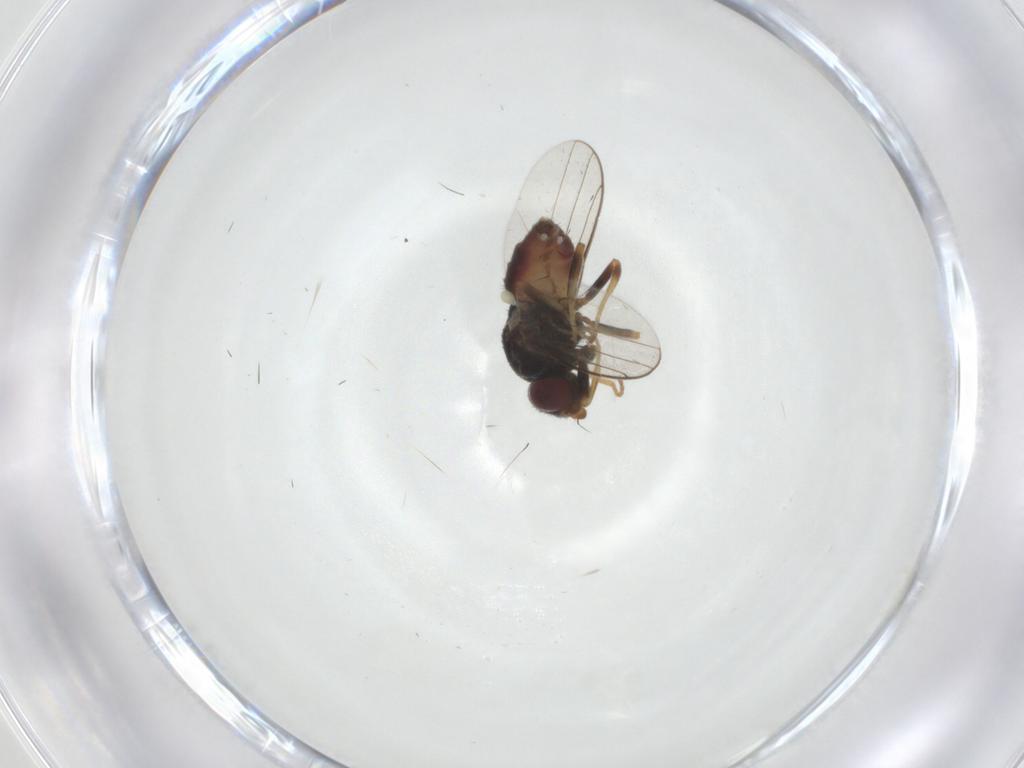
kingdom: Animalia
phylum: Arthropoda
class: Insecta
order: Diptera
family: Chloropidae
